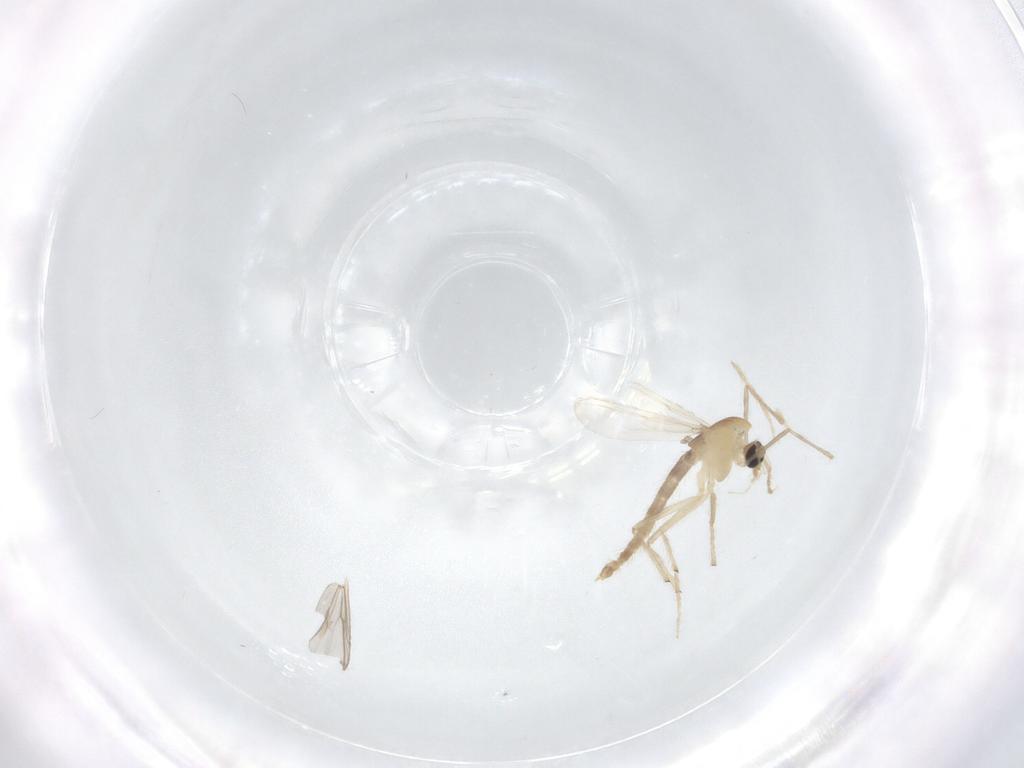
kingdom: Animalia
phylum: Arthropoda
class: Insecta
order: Diptera
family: Chironomidae
